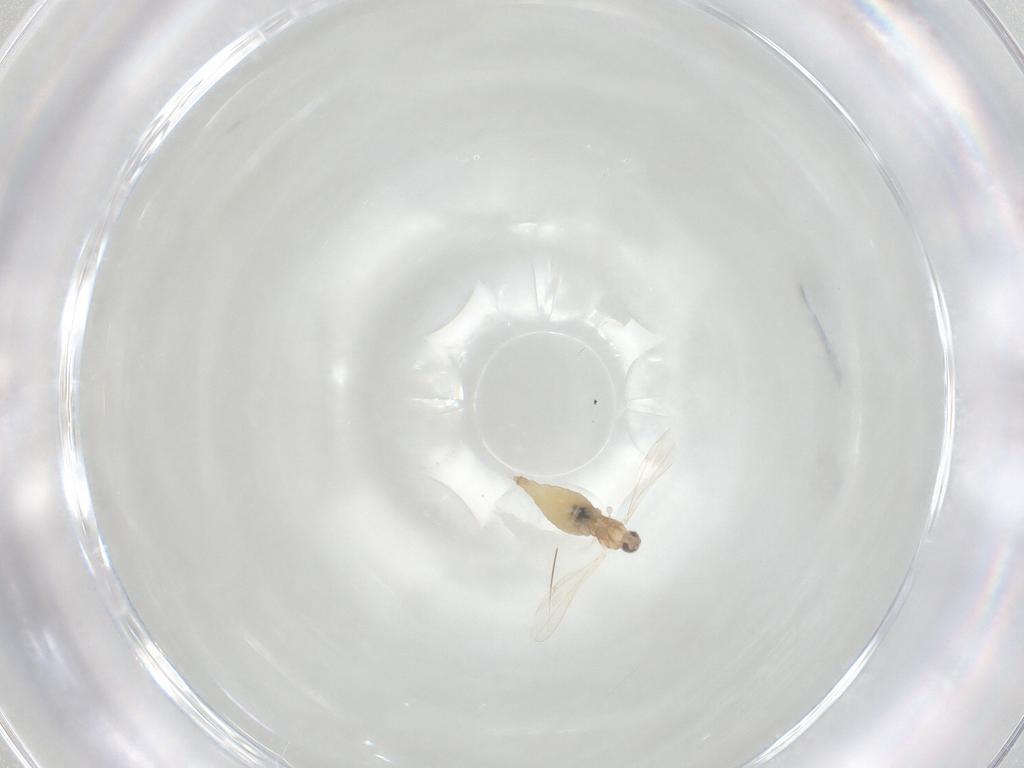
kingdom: Animalia
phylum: Arthropoda
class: Insecta
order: Diptera
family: Cecidomyiidae
